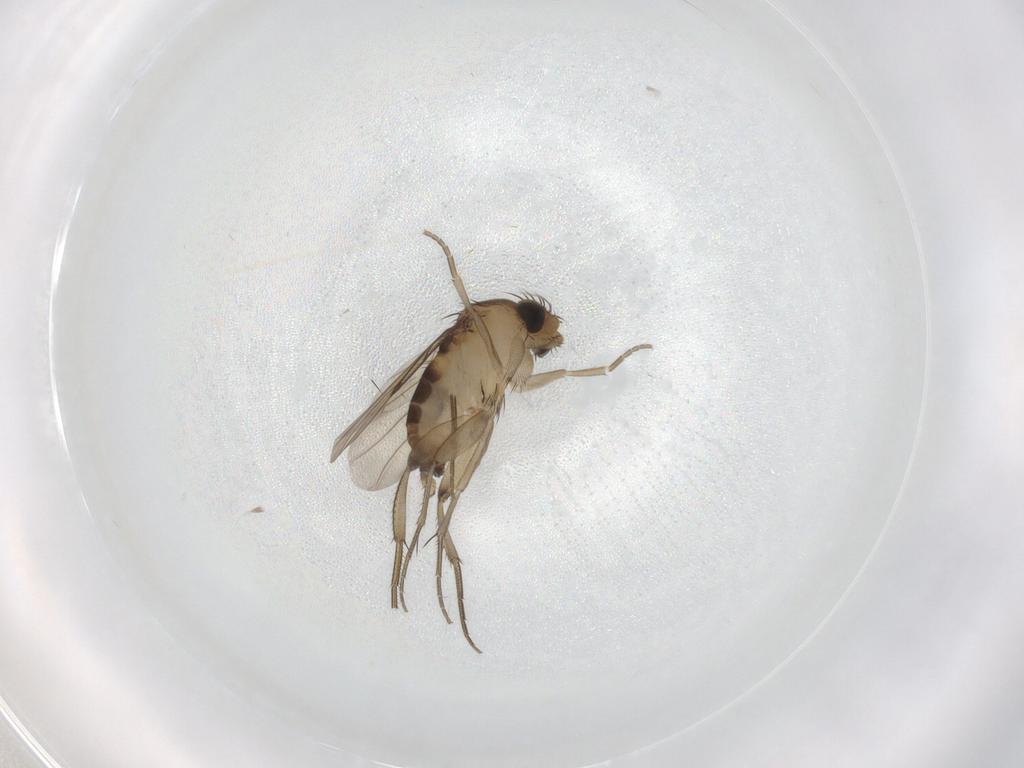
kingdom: Animalia
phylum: Arthropoda
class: Insecta
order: Diptera
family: Cecidomyiidae
